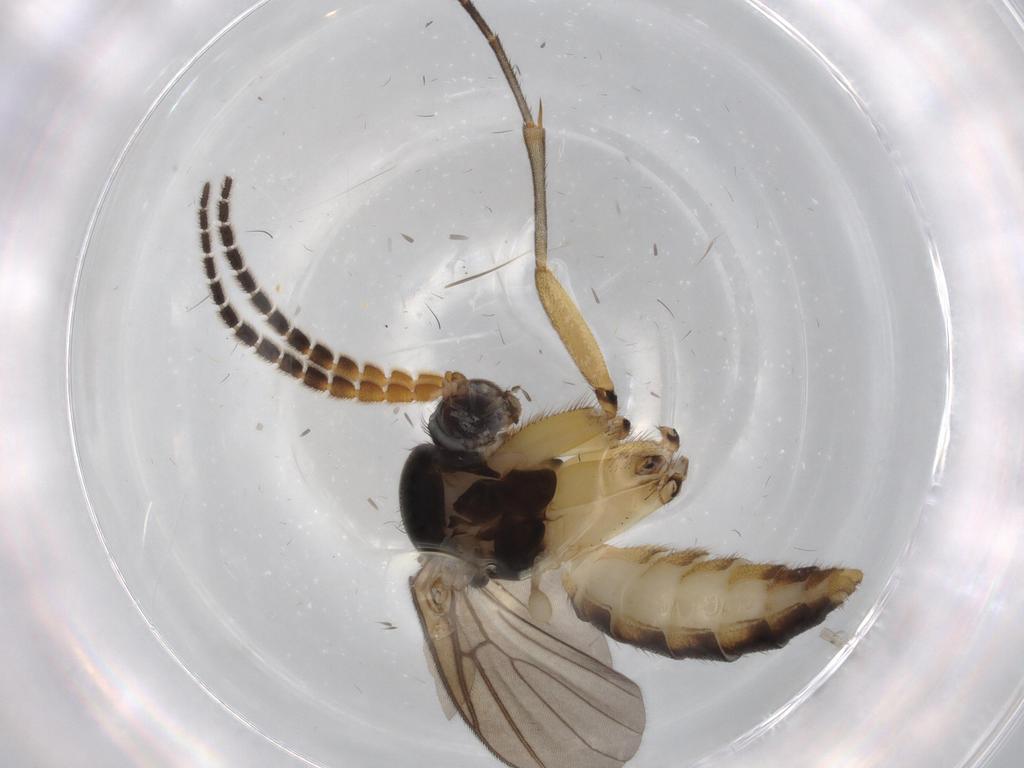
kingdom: Animalia
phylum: Arthropoda
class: Insecta
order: Diptera
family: Cecidomyiidae
